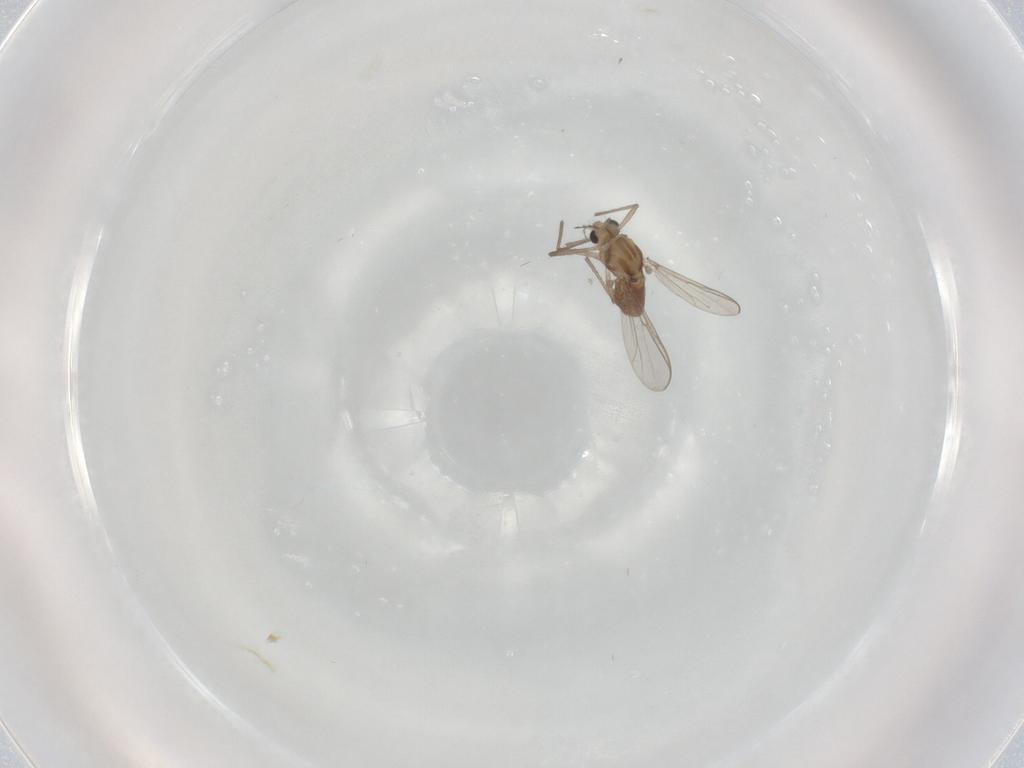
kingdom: Animalia
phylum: Arthropoda
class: Insecta
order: Diptera
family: Chironomidae
